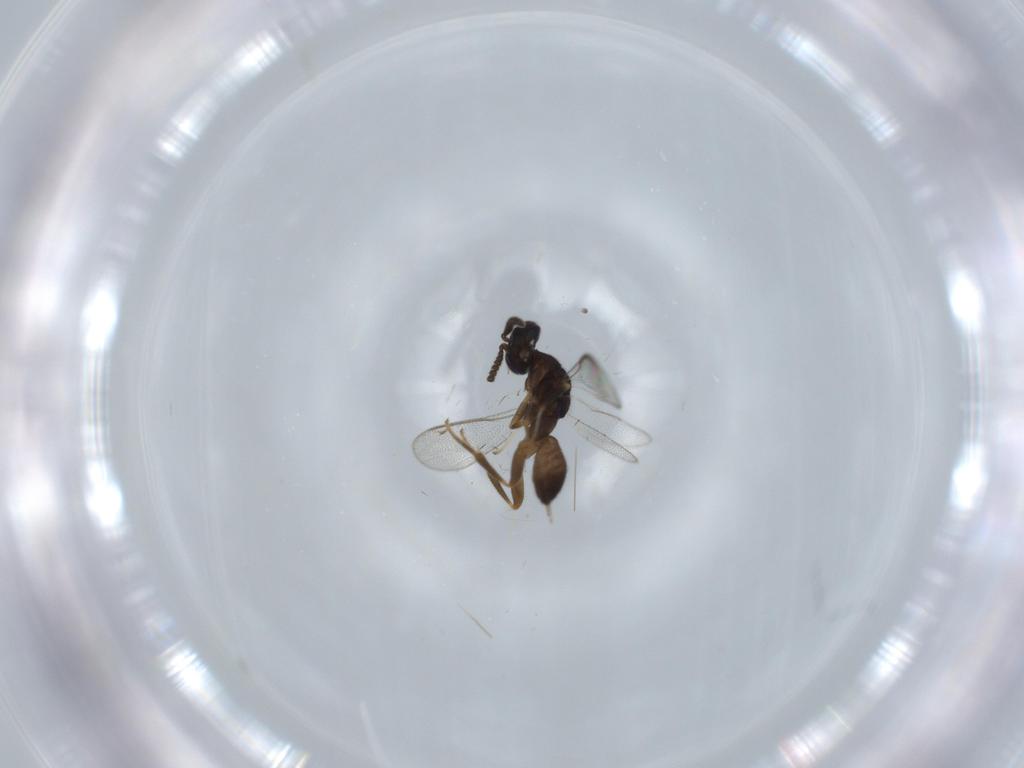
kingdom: Animalia
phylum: Arthropoda
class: Insecta
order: Hymenoptera
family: Cleonyminae
